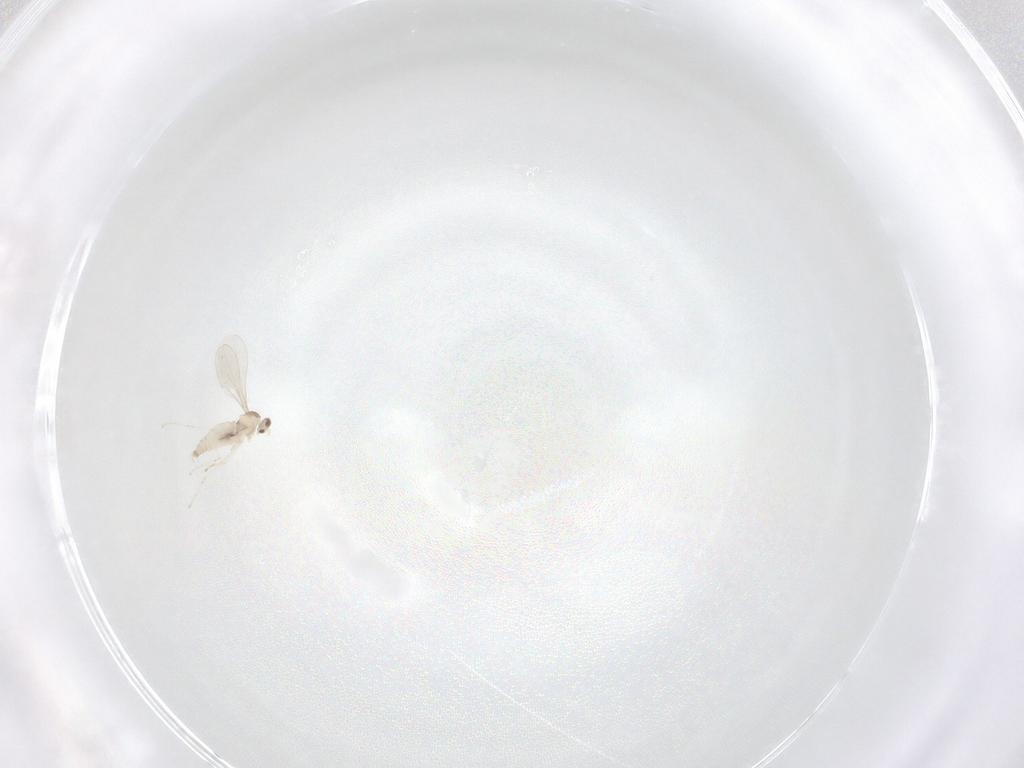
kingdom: Animalia
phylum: Arthropoda
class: Insecta
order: Diptera
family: Cecidomyiidae
